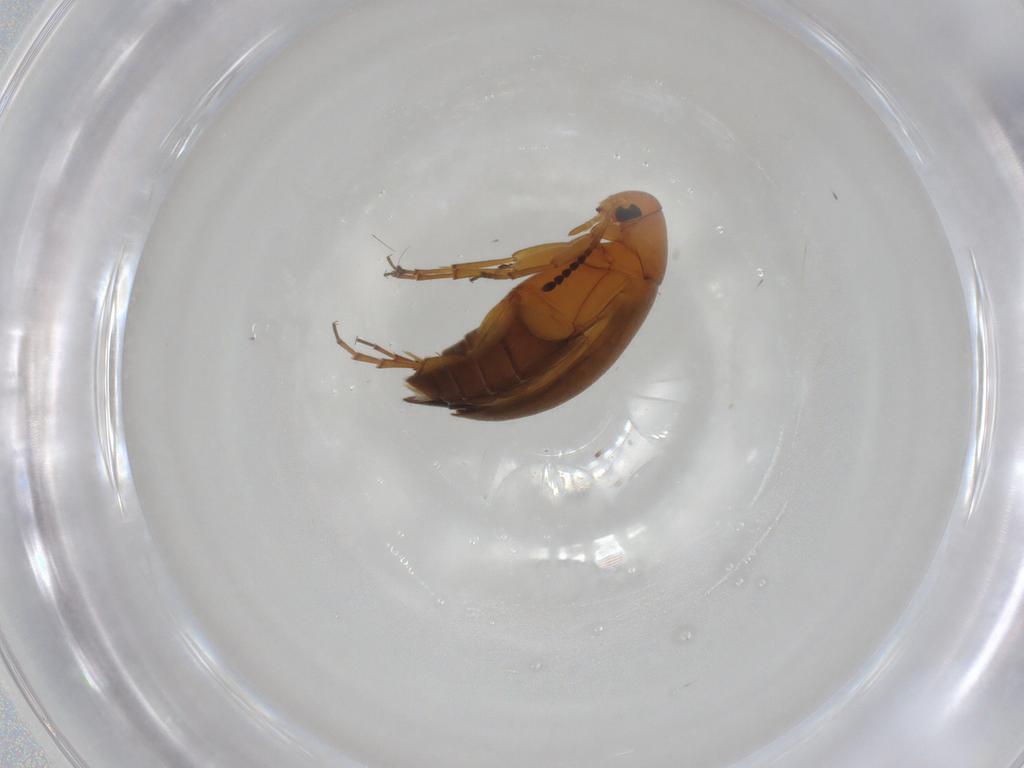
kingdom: Animalia
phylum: Arthropoda
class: Insecta
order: Coleoptera
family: Scraptiidae
